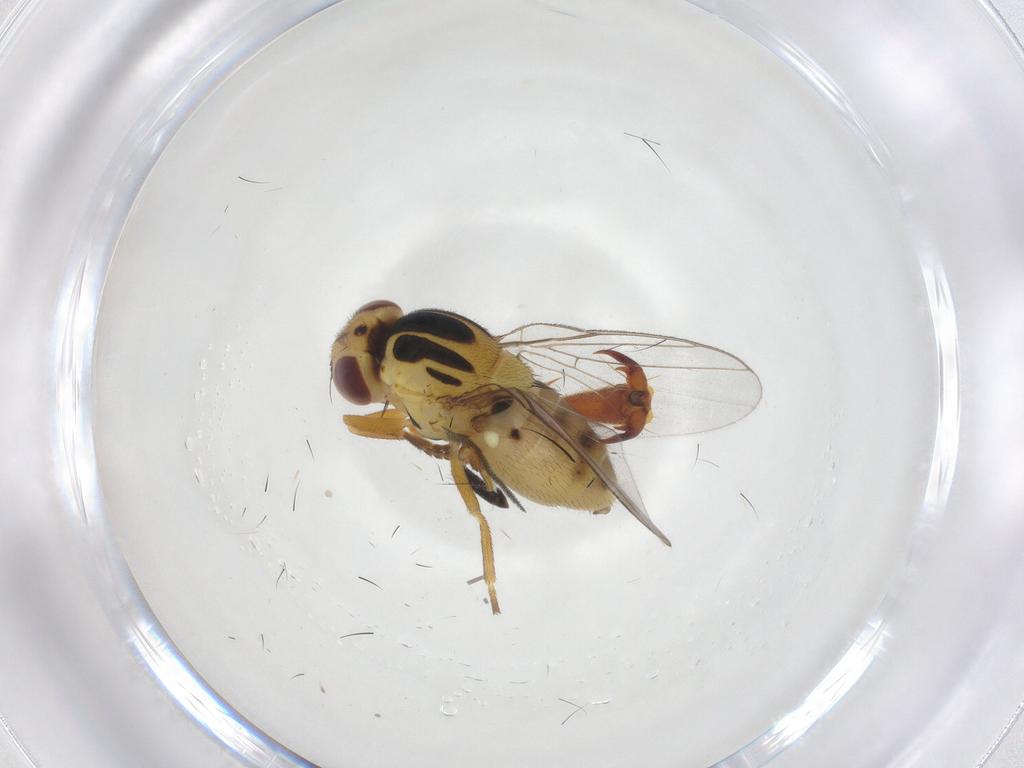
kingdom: Animalia
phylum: Arthropoda
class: Insecta
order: Diptera
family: Chloropidae
